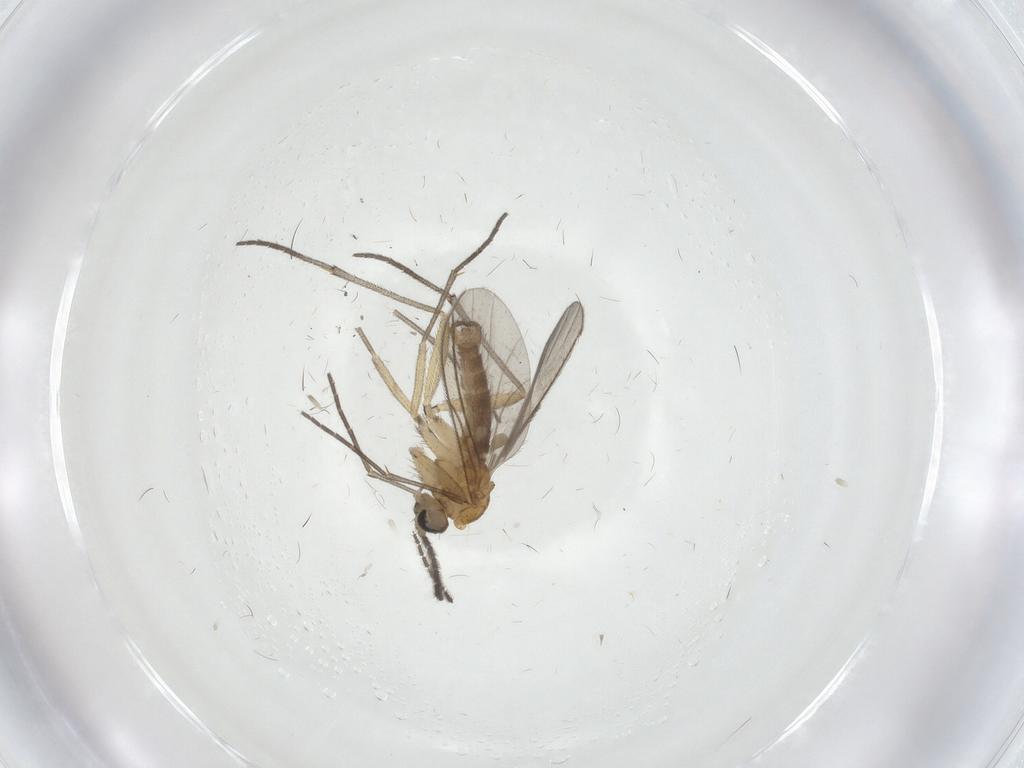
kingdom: Animalia
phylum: Arthropoda
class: Insecta
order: Diptera
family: Sciaridae
